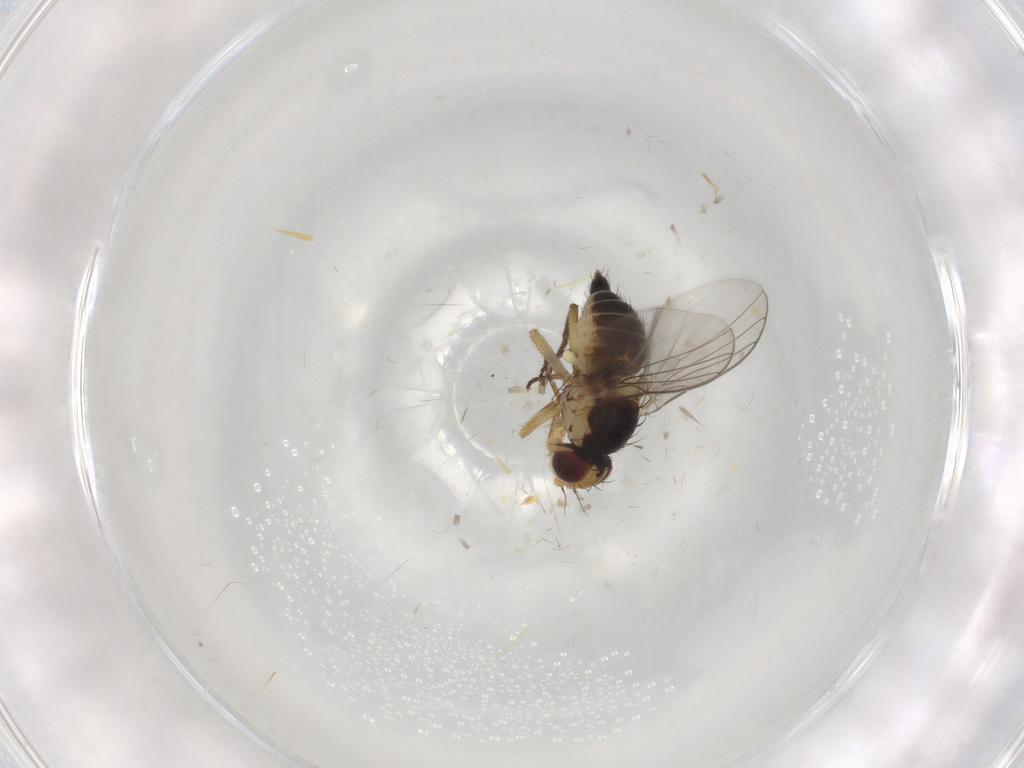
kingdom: Animalia
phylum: Arthropoda
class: Insecta
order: Diptera
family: Agromyzidae
